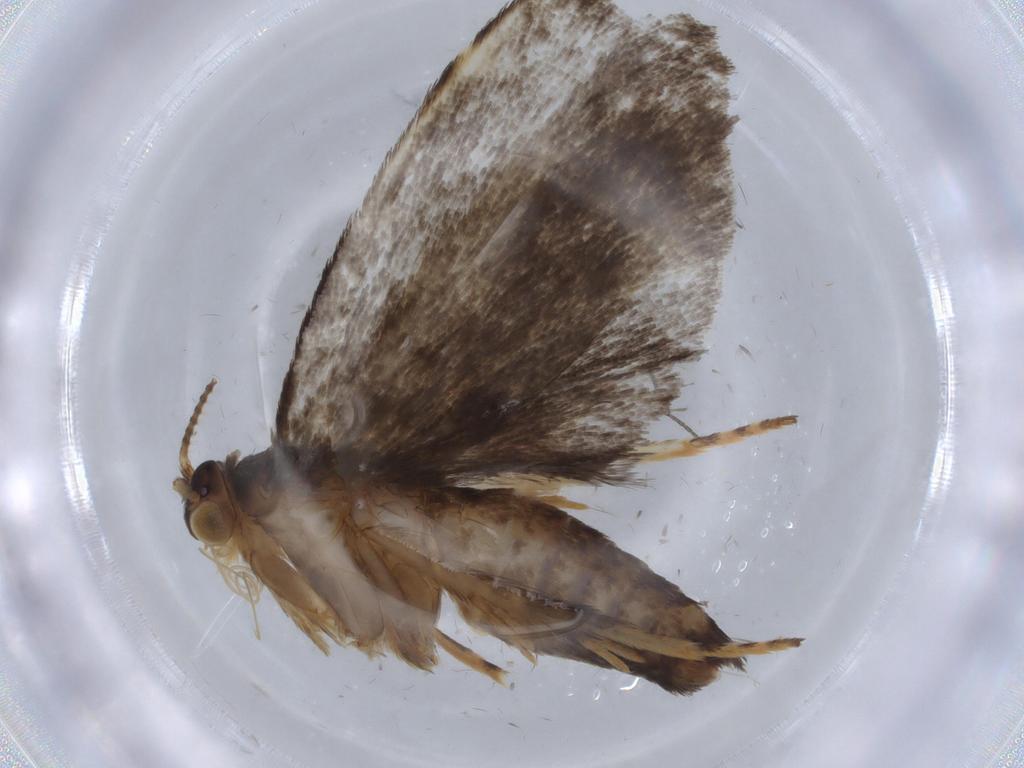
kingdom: Animalia
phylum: Arthropoda
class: Insecta
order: Lepidoptera
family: Choreutidae
